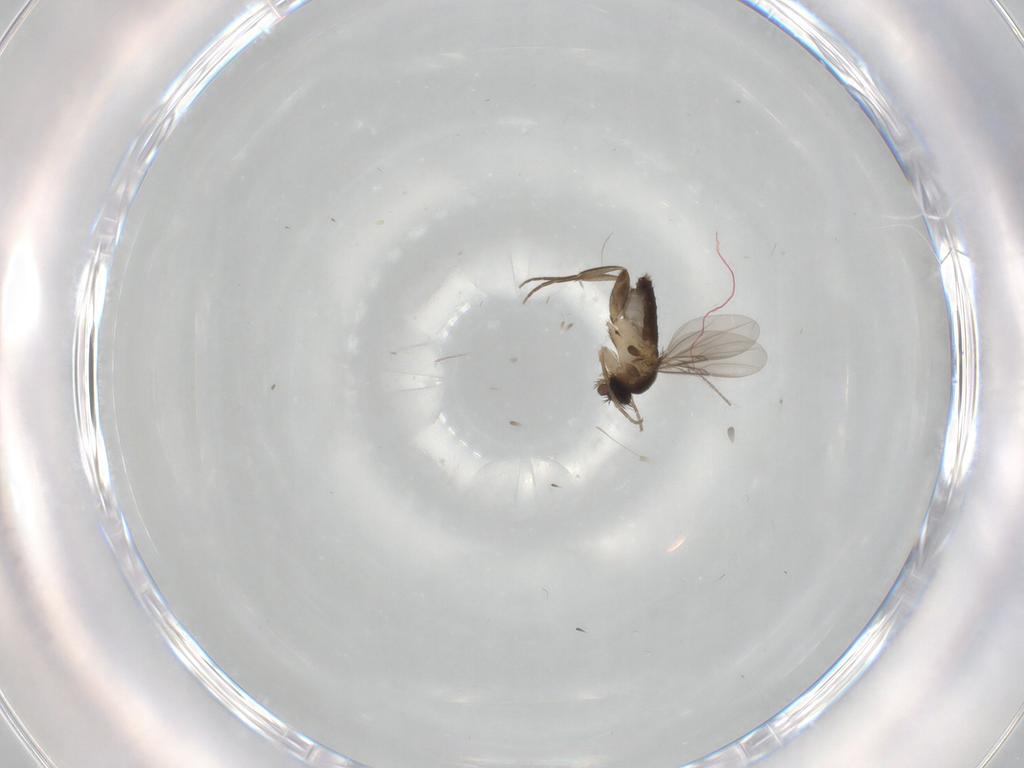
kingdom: Animalia
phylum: Arthropoda
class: Insecta
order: Diptera
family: Phoridae
